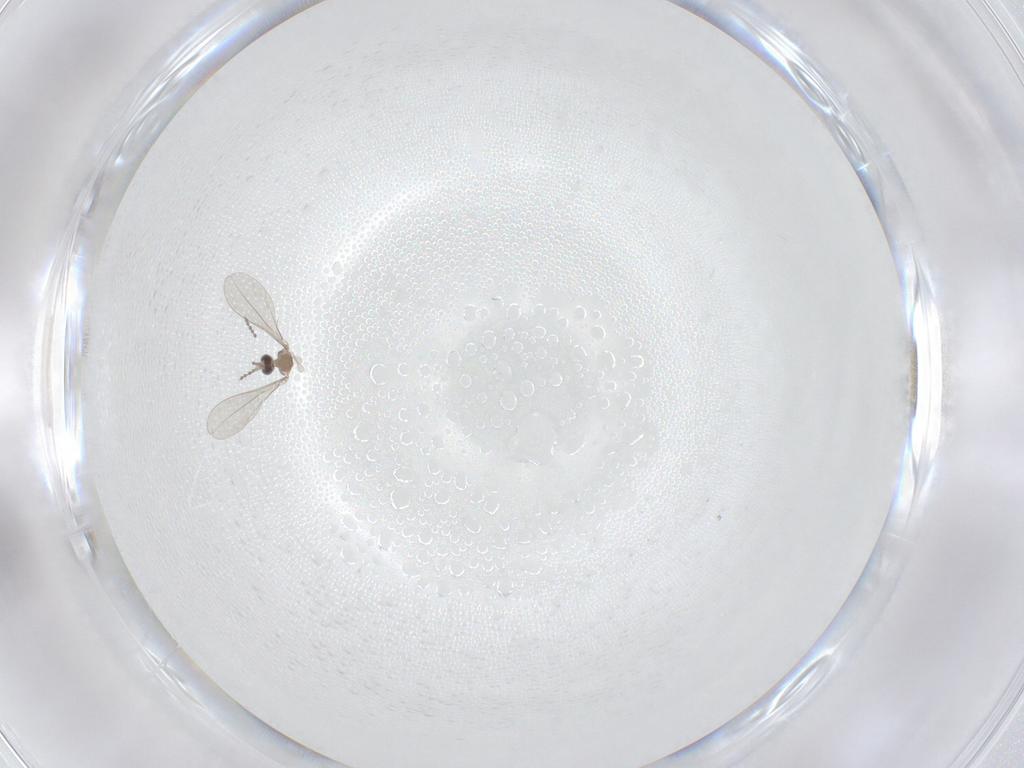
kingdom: Animalia
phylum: Arthropoda
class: Insecta
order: Diptera
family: Cecidomyiidae
